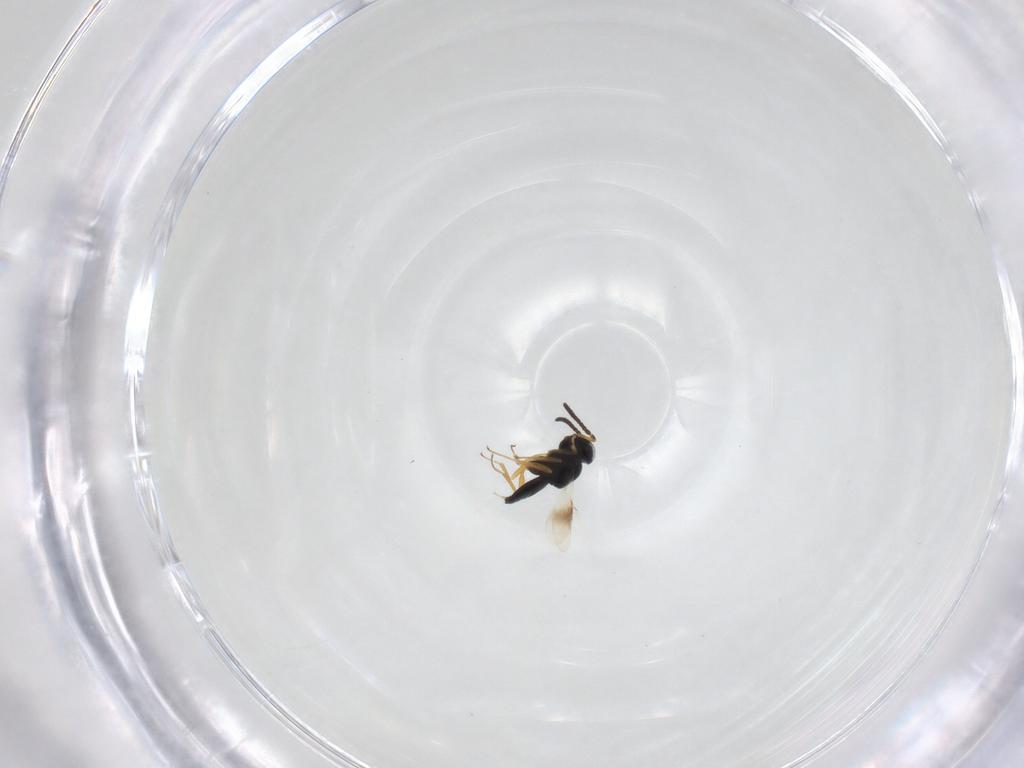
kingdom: Animalia
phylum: Arthropoda
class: Insecta
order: Hymenoptera
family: Scelionidae
